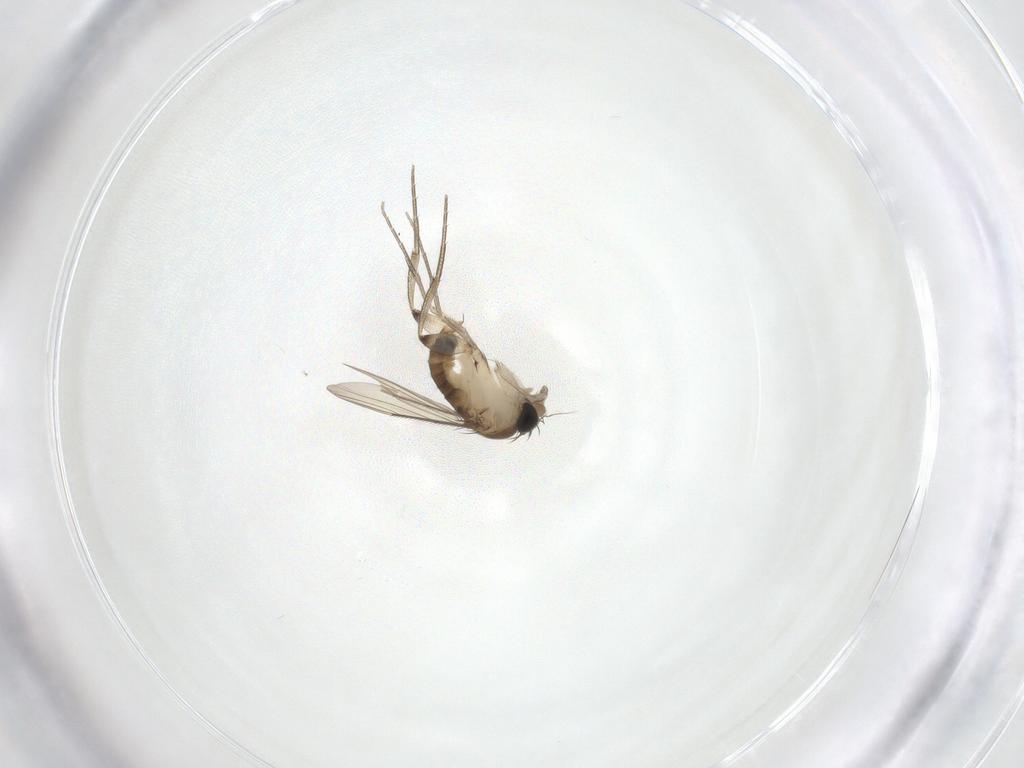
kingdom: Animalia
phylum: Arthropoda
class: Insecta
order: Diptera
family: Phoridae
